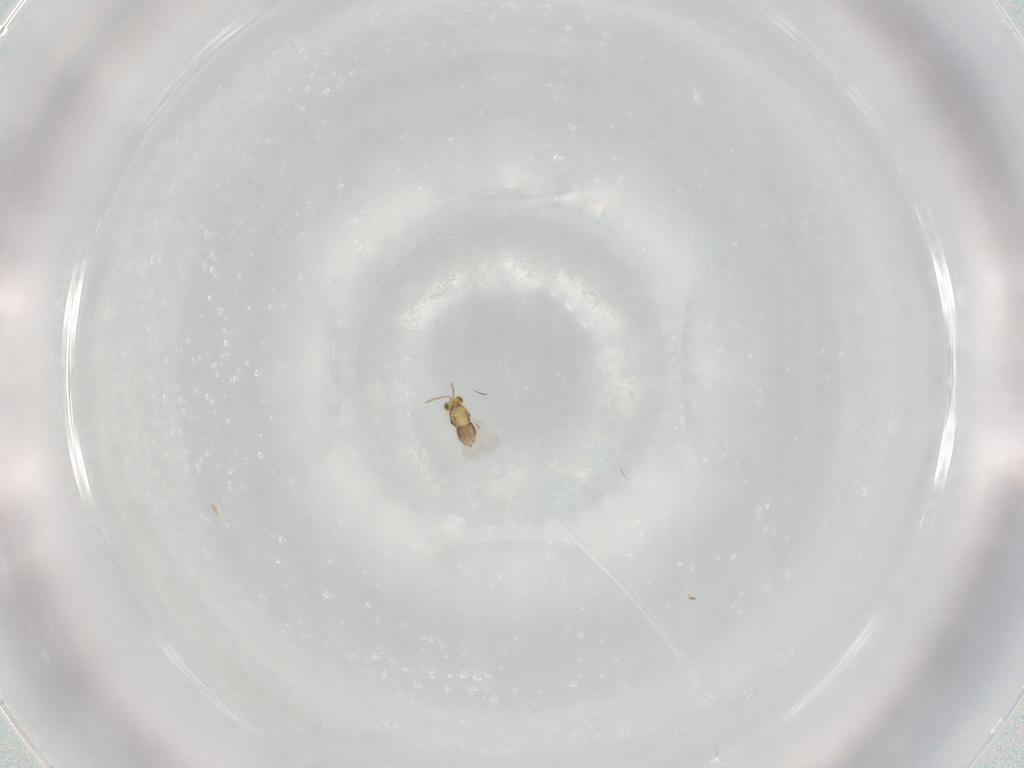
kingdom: Animalia
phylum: Arthropoda
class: Insecta
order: Hymenoptera
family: Aphelinidae
